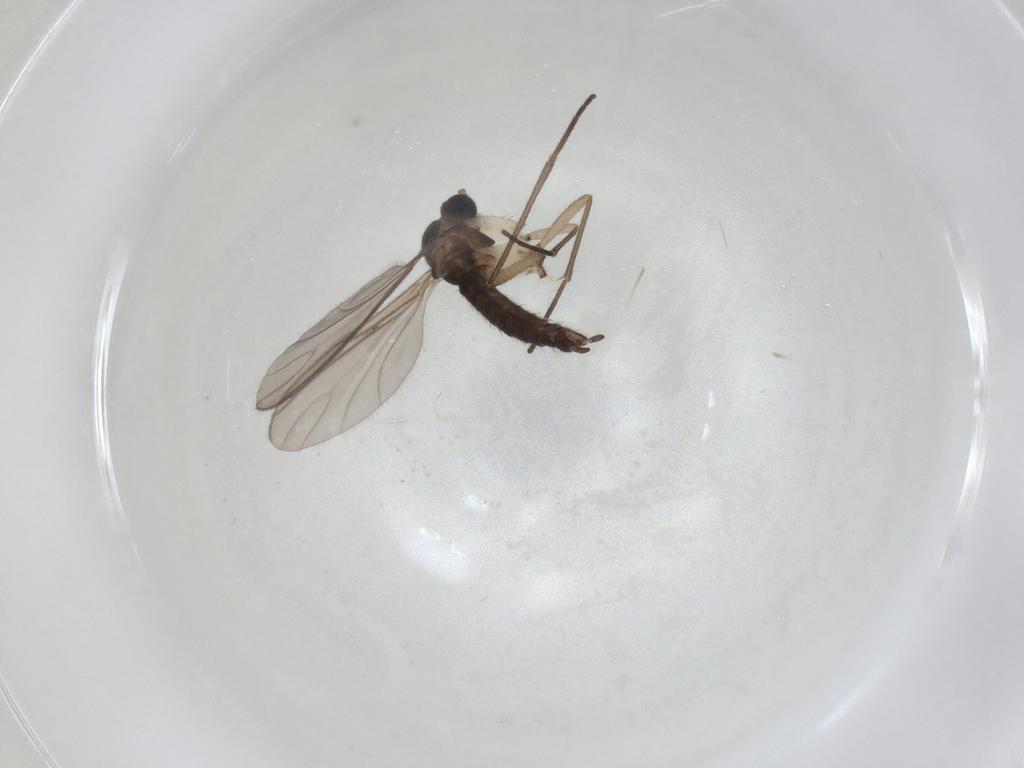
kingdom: Animalia
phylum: Arthropoda
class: Insecta
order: Diptera
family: Sciaridae
